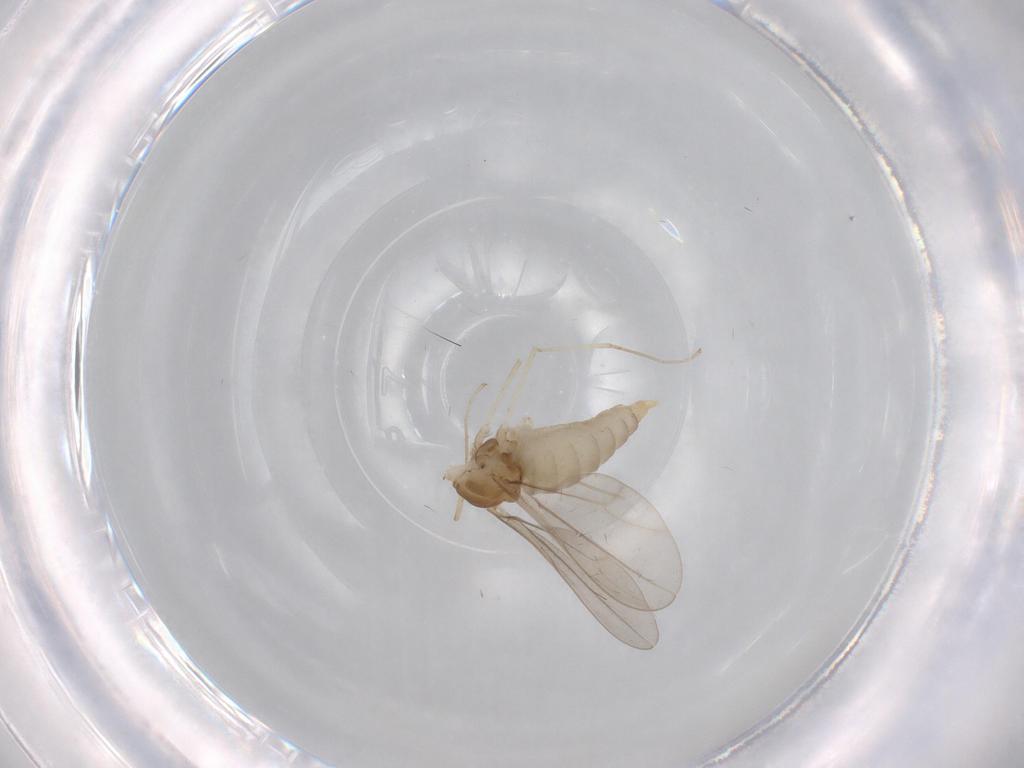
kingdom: Animalia
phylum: Arthropoda
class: Insecta
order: Diptera
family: Cecidomyiidae
